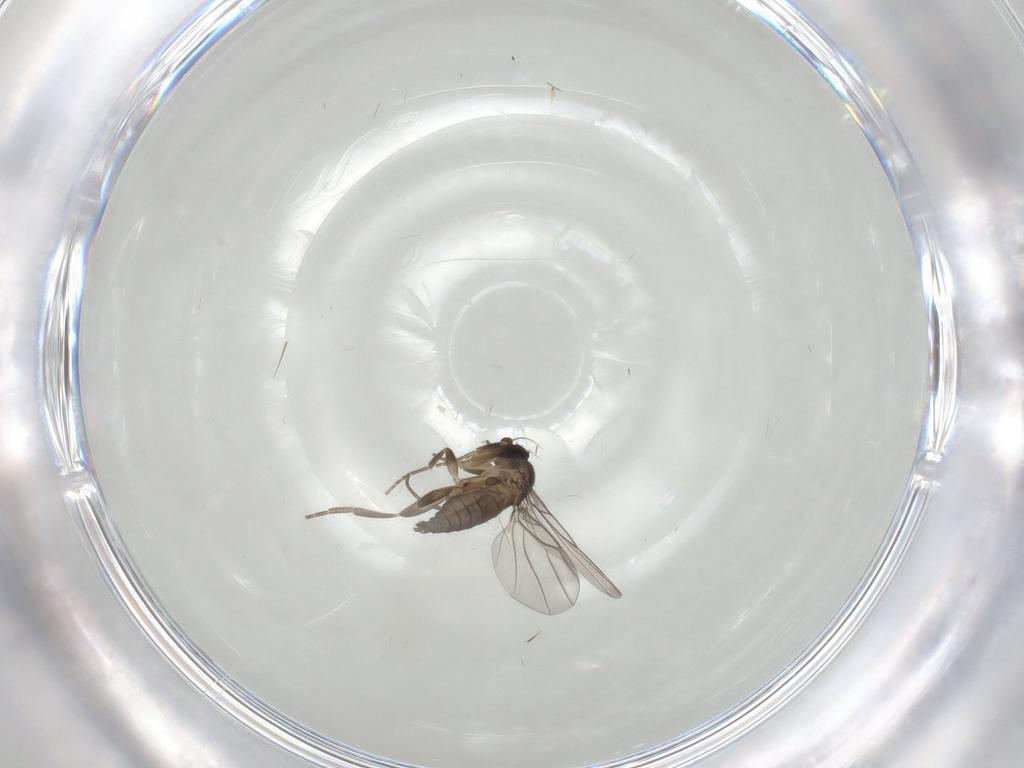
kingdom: Animalia
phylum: Arthropoda
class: Insecta
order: Diptera
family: Phoridae
